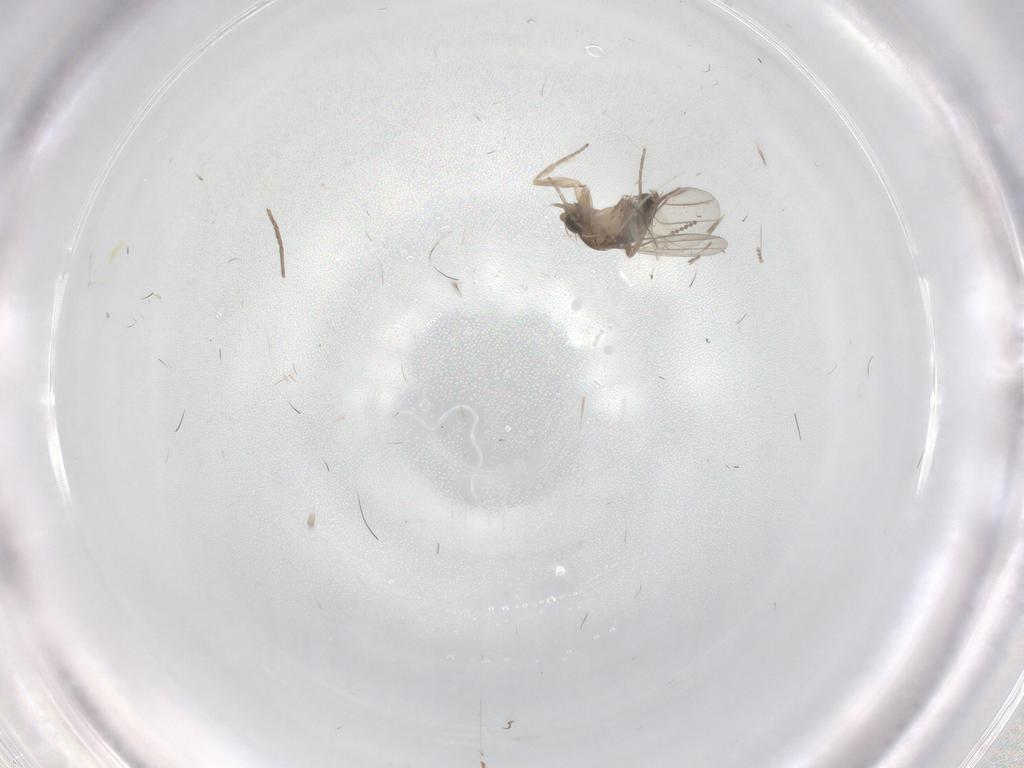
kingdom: Animalia
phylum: Arthropoda
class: Insecta
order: Diptera
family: Cecidomyiidae
